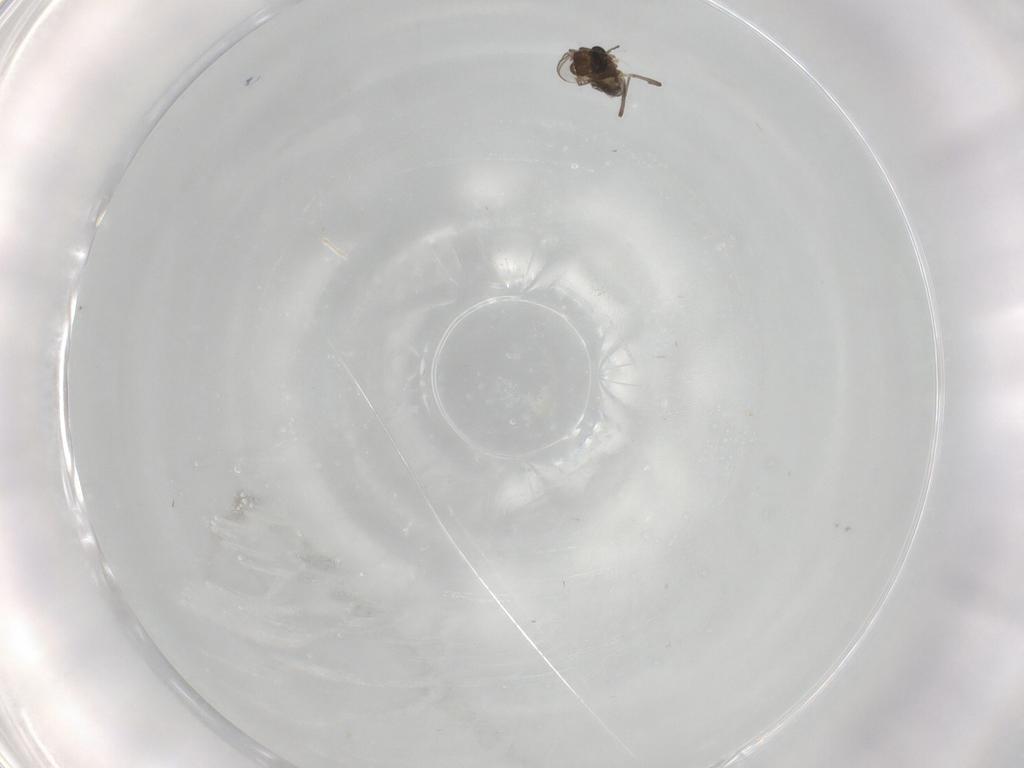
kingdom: Animalia
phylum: Arthropoda
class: Insecta
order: Diptera
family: Chironomidae
